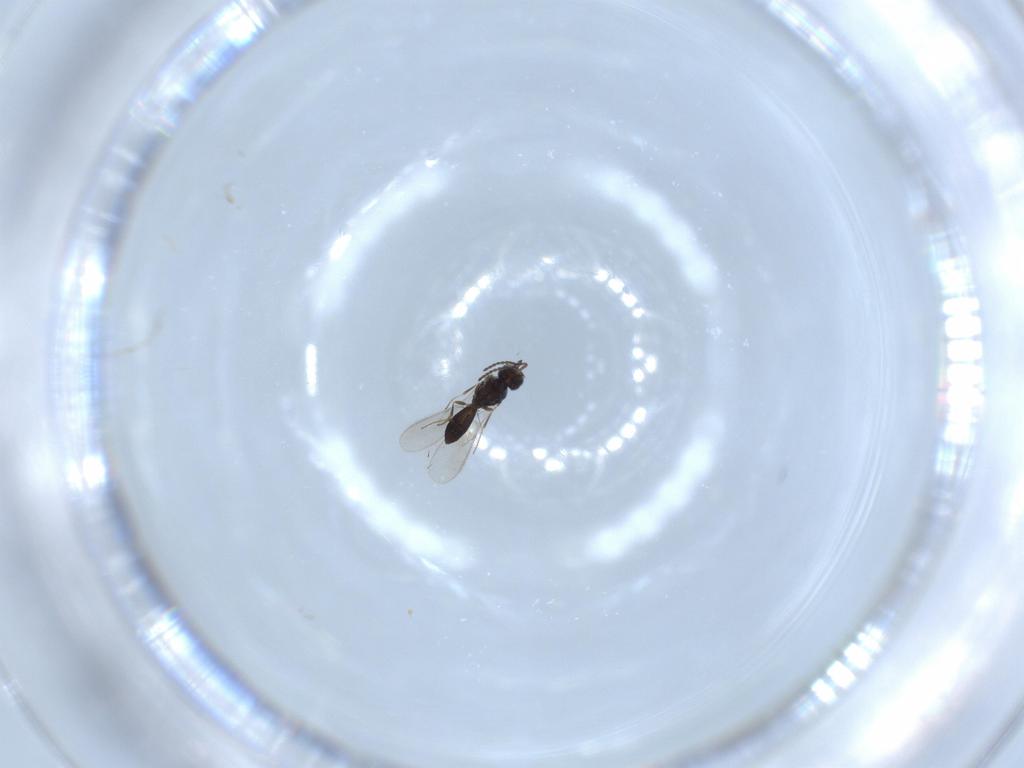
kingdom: Animalia
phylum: Arthropoda
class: Insecta
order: Hymenoptera
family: Scelionidae
